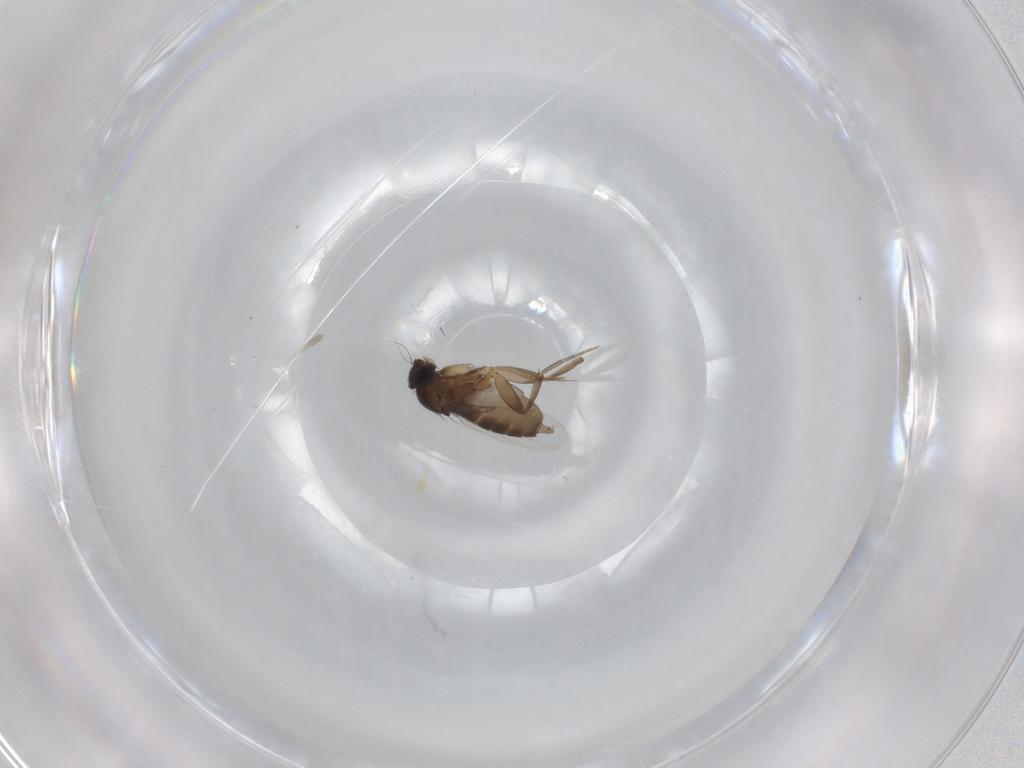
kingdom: Animalia
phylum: Arthropoda
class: Insecta
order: Diptera
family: Phoridae
